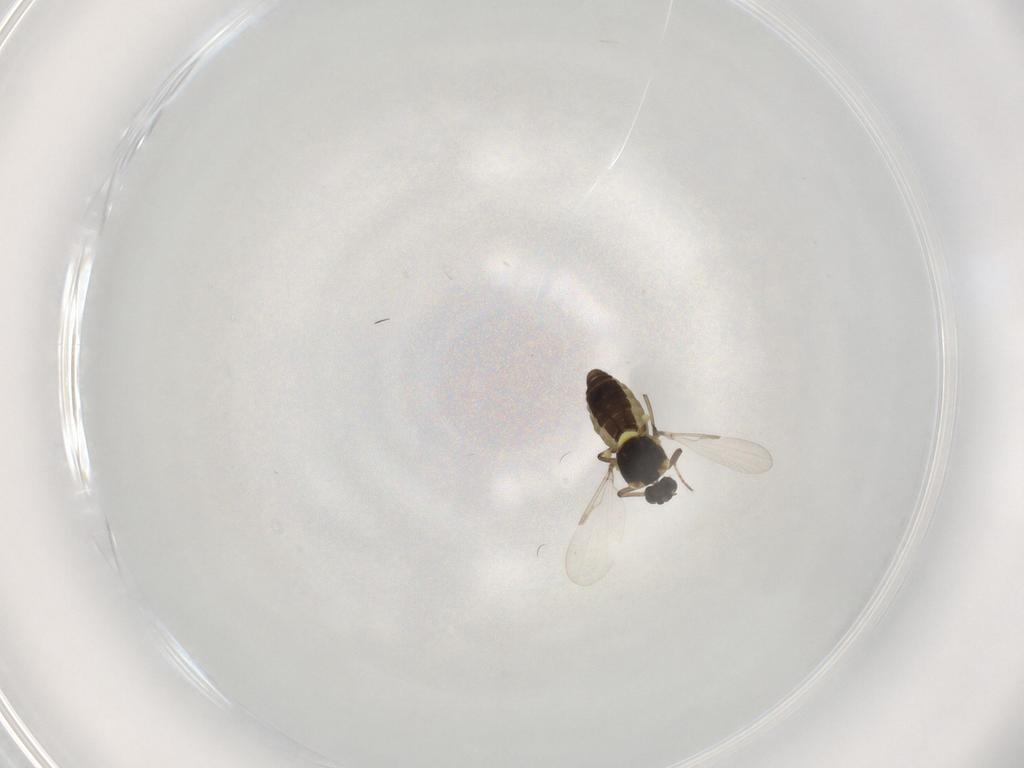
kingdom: Animalia
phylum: Arthropoda
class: Insecta
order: Diptera
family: Ceratopogonidae
